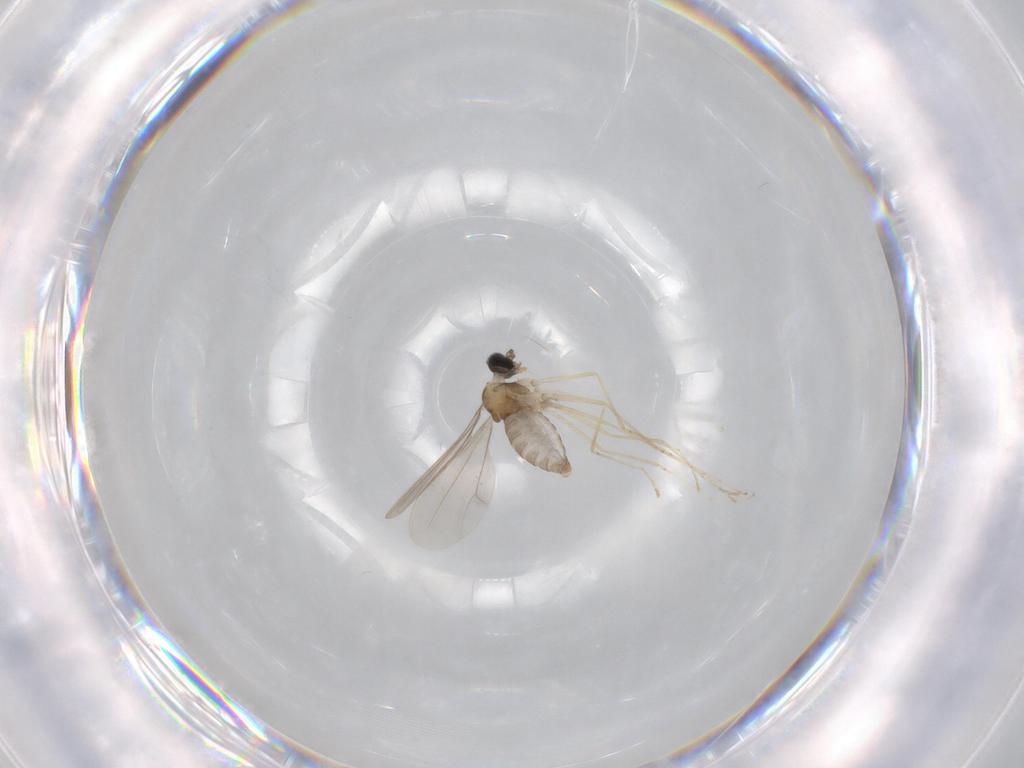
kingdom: Animalia
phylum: Arthropoda
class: Insecta
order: Diptera
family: Cecidomyiidae
